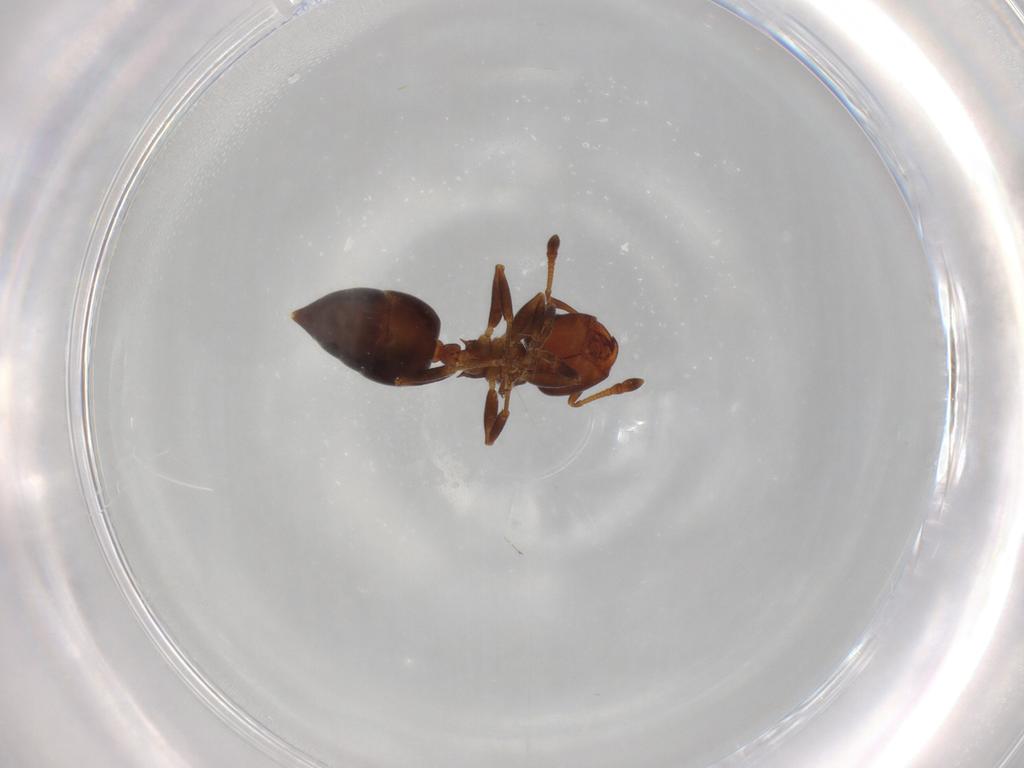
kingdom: Animalia
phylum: Arthropoda
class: Insecta
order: Hymenoptera
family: Formicidae
